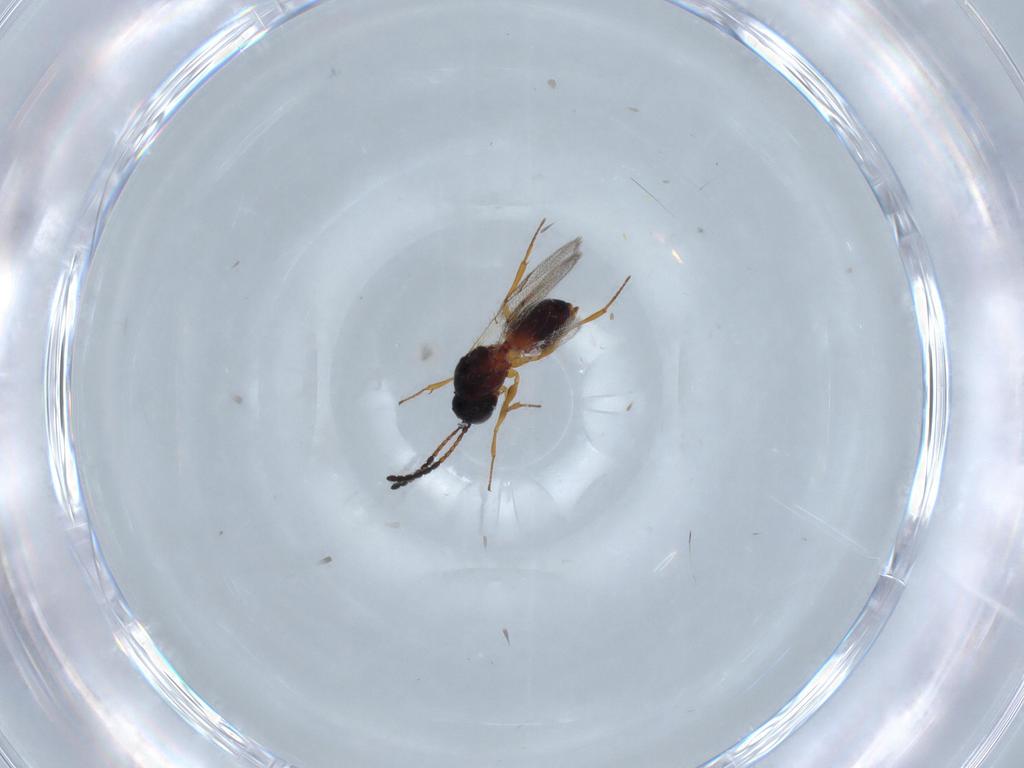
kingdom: Animalia
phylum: Arthropoda
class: Insecta
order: Hymenoptera
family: Figitidae
